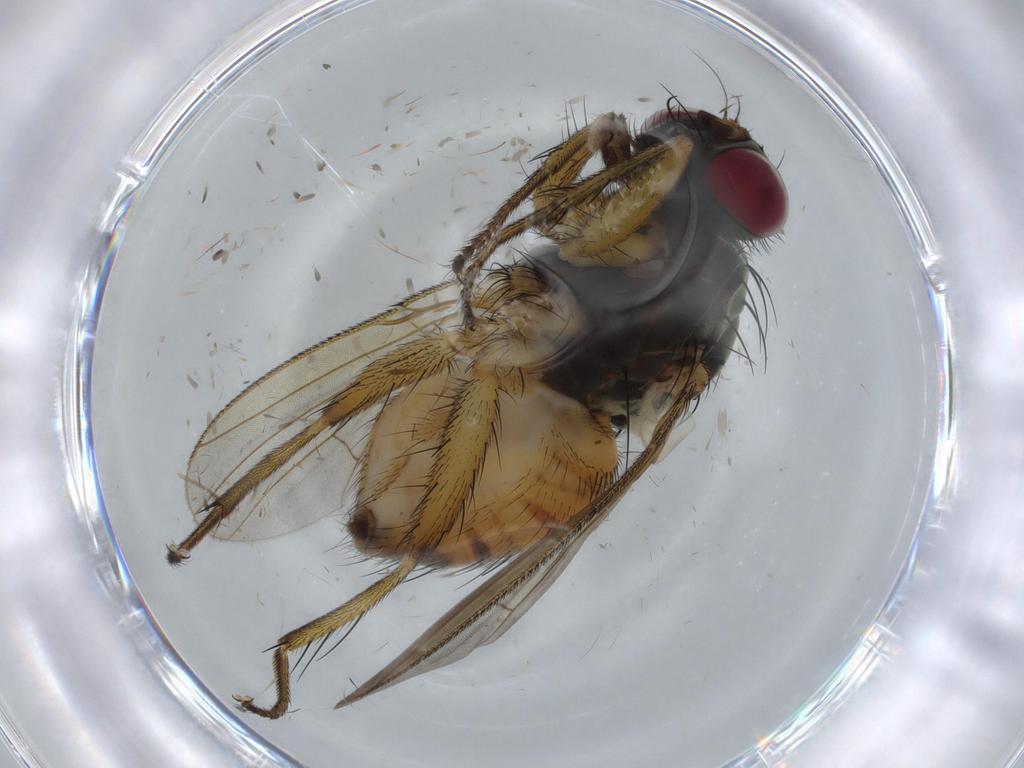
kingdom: Animalia
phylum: Arthropoda
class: Insecta
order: Diptera
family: Muscidae
